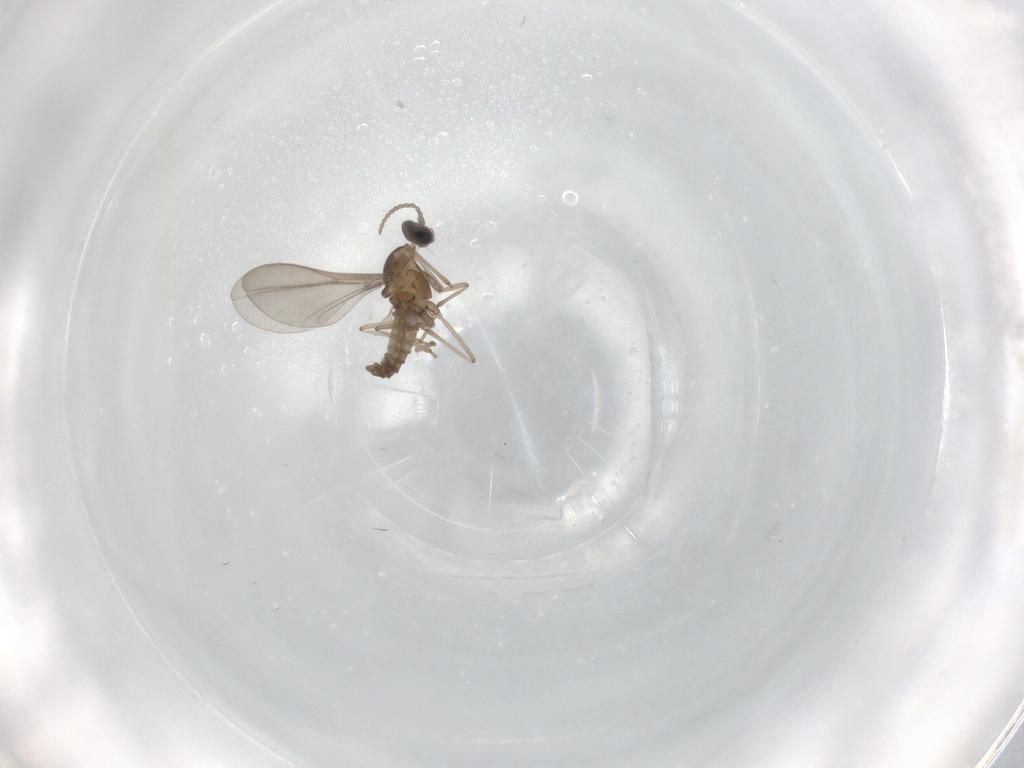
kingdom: Animalia
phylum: Arthropoda
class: Insecta
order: Diptera
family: Cecidomyiidae
